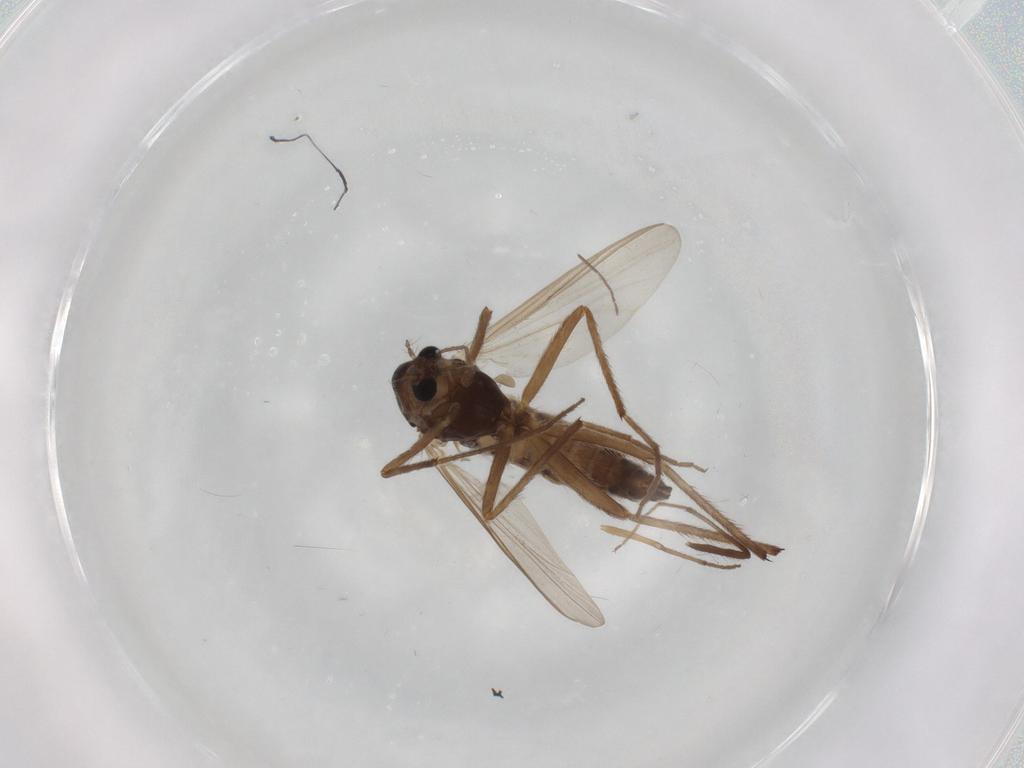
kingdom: Animalia
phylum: Arthropoda
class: Insecta
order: Diptera
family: Chironomidae
